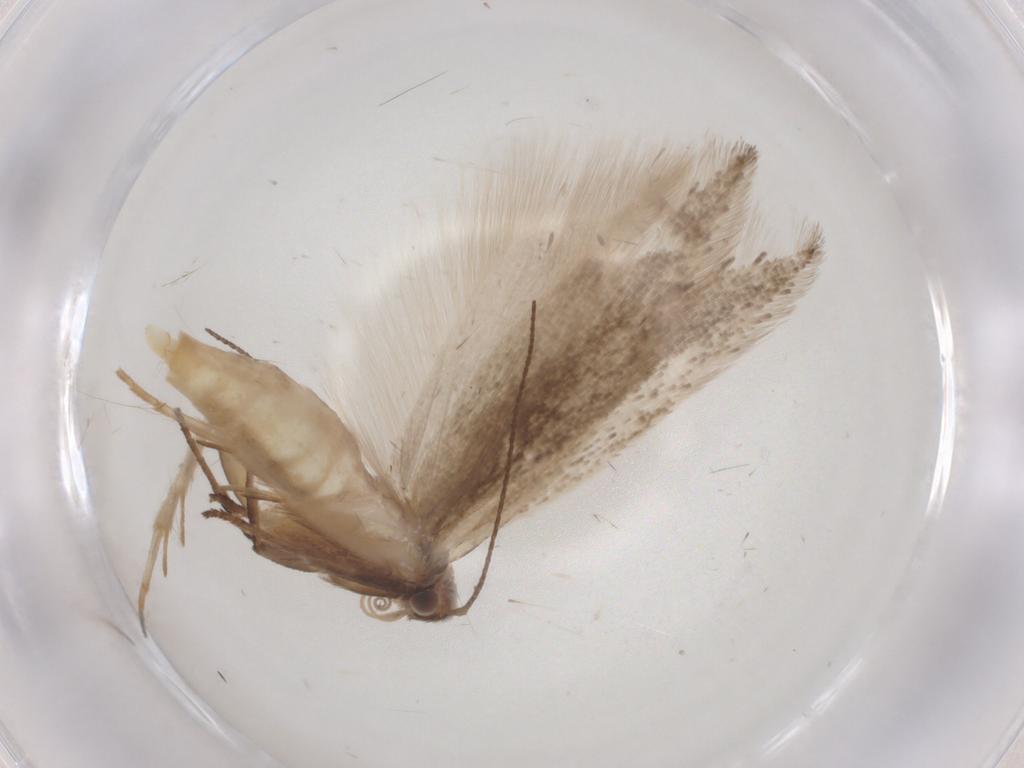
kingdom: Animalia
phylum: Arthropoda
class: Insecta
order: Lepidoptera
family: Gelechiidae
